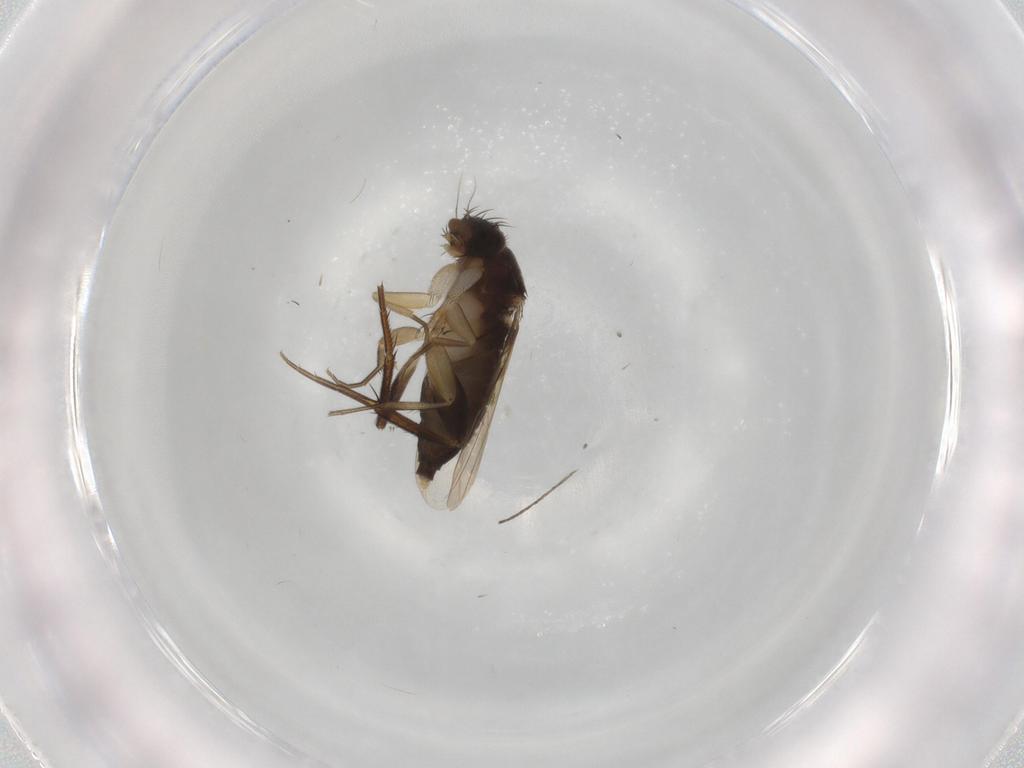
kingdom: Animalia
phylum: Arthropoda
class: Insecta
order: Diptera
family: Phoridae
